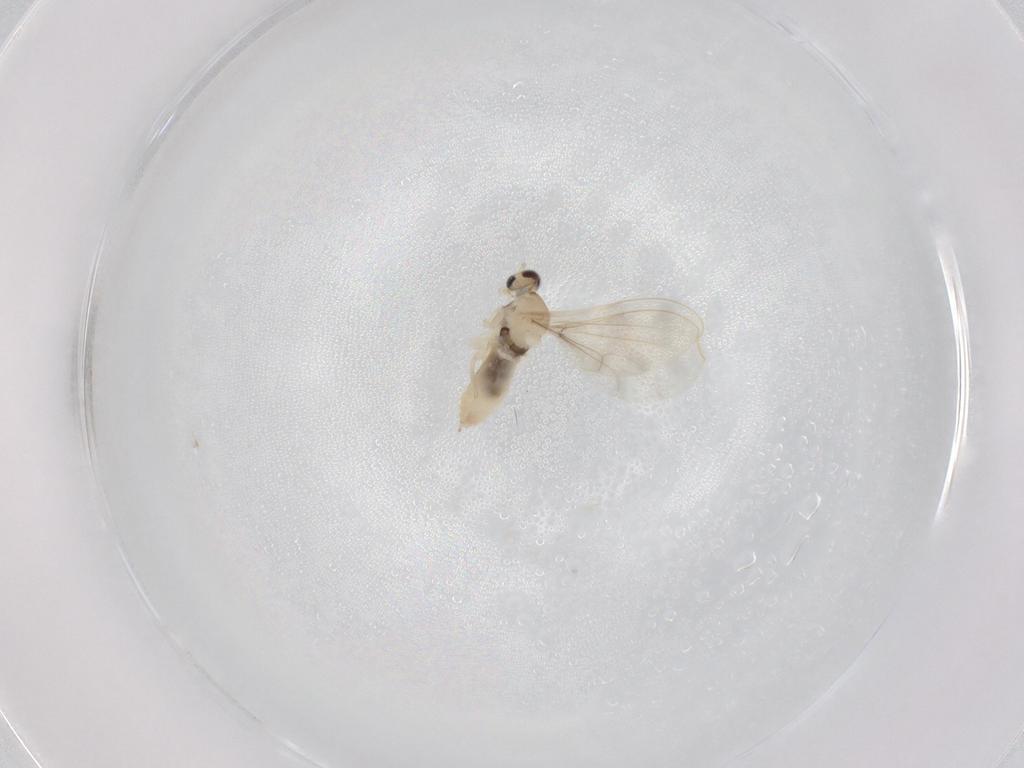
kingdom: Animalia
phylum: Arthropoda
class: Insecta
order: Diptera
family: Cecidomyiidae
